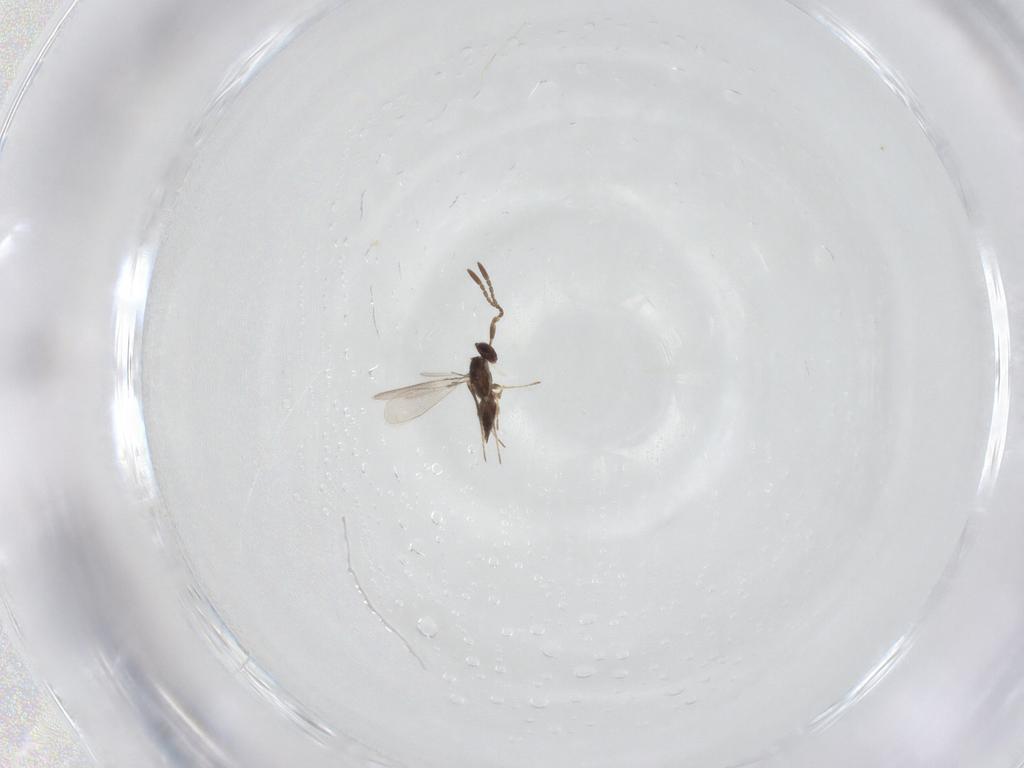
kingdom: Animalia
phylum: Arthropoda
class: Insecta
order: Hymenoptera
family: Mymaridae
